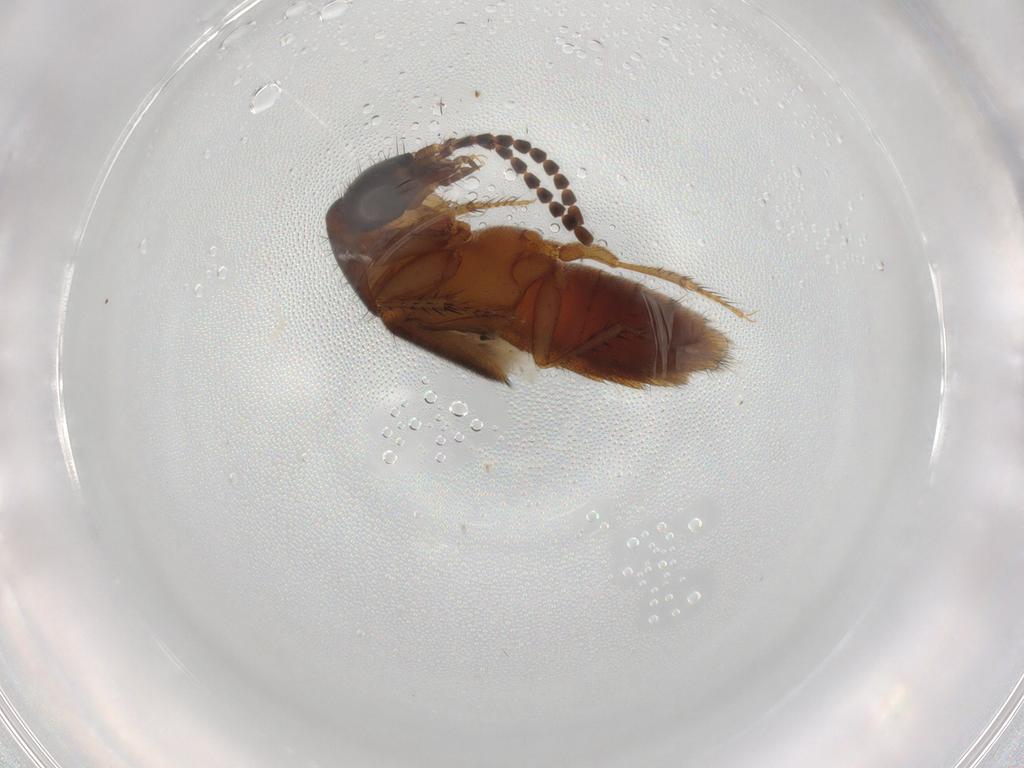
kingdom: Animalia
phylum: Arthropoda
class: Insecta
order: Coleoptera
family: Staphylinidae
